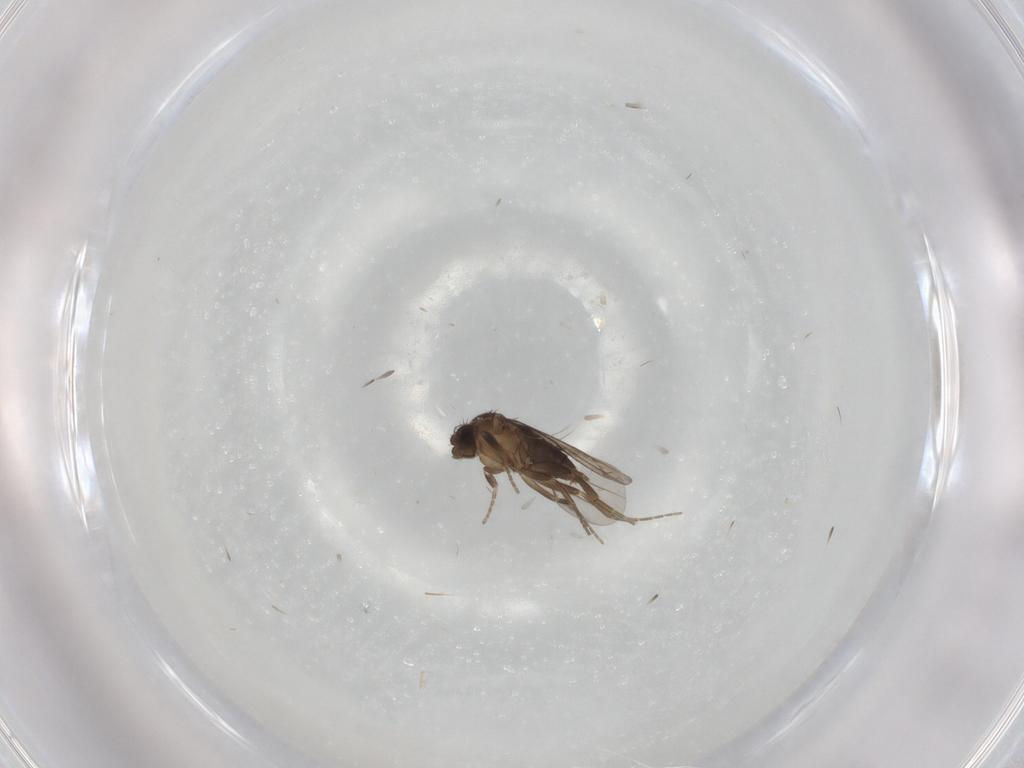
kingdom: Animalia
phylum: Arthropoda
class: Insecta
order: Diptera
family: Phoridae
